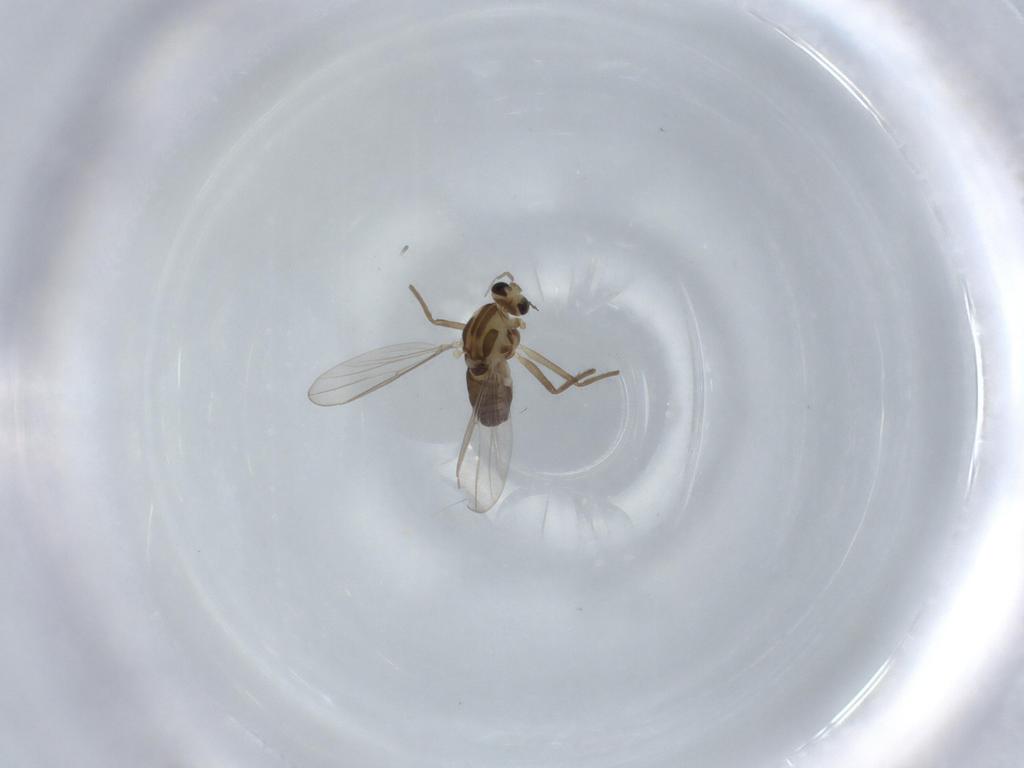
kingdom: Animalia
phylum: Arthropoda
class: Insecta
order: Diptera
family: Chironomidae
